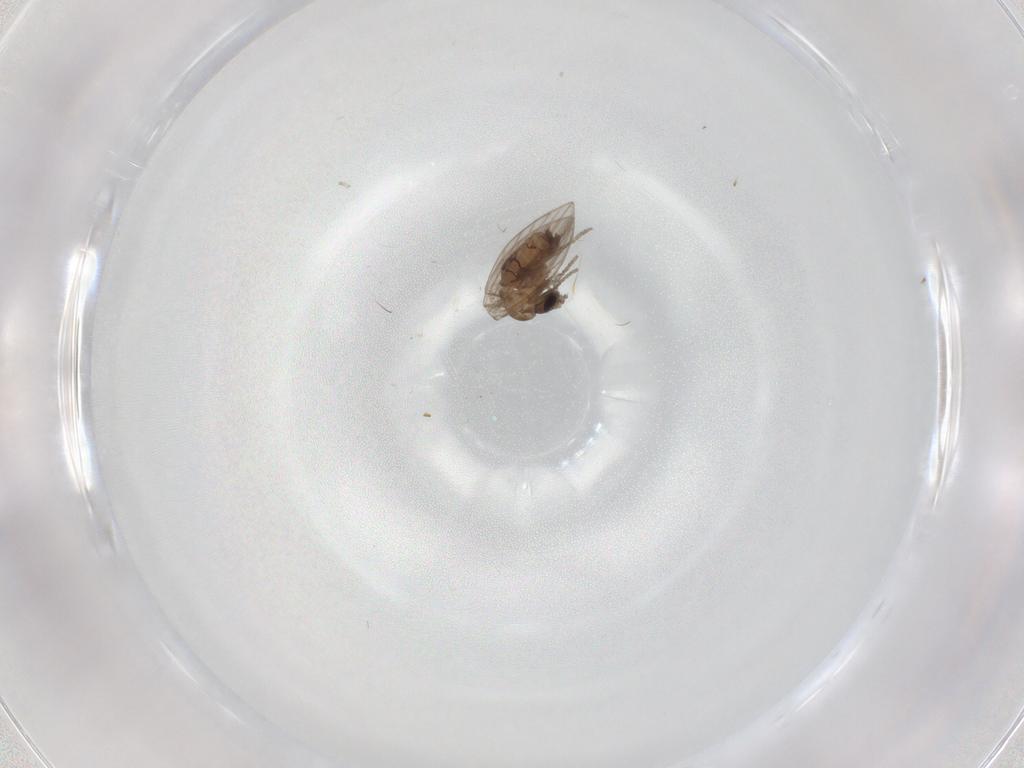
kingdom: Animalia
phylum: Arthropoda
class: Insecta
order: Diptera
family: Psychodidae
